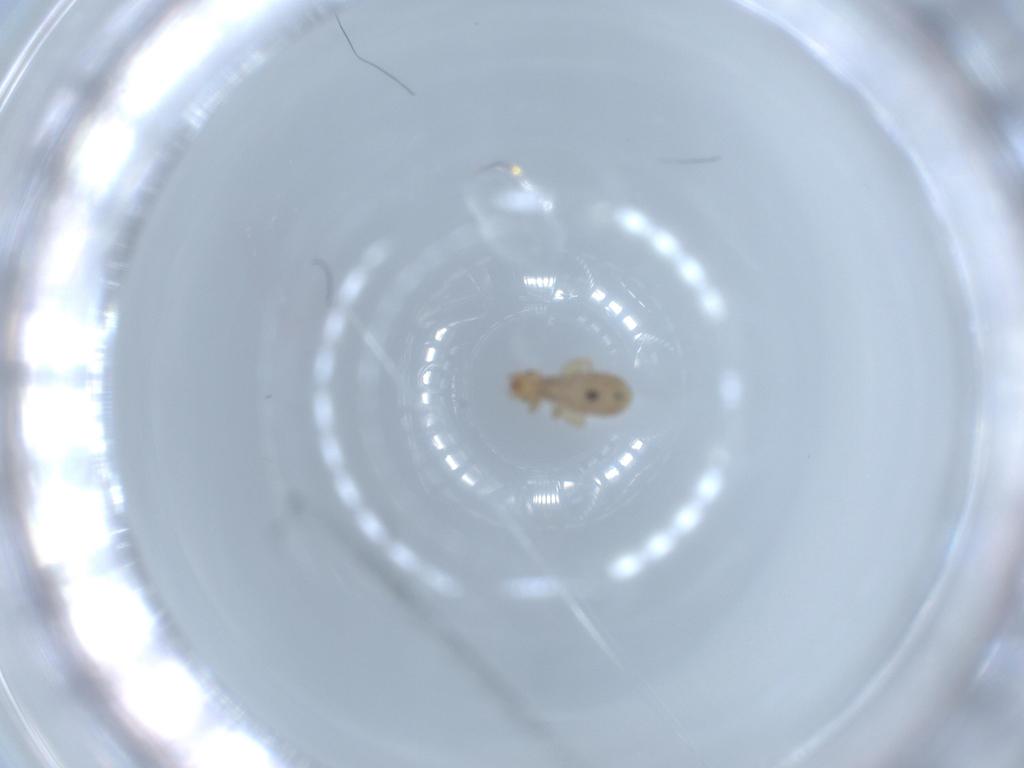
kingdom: Animalia
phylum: Arthropoda
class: Insecta
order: Psocodea
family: Liposcelididae
